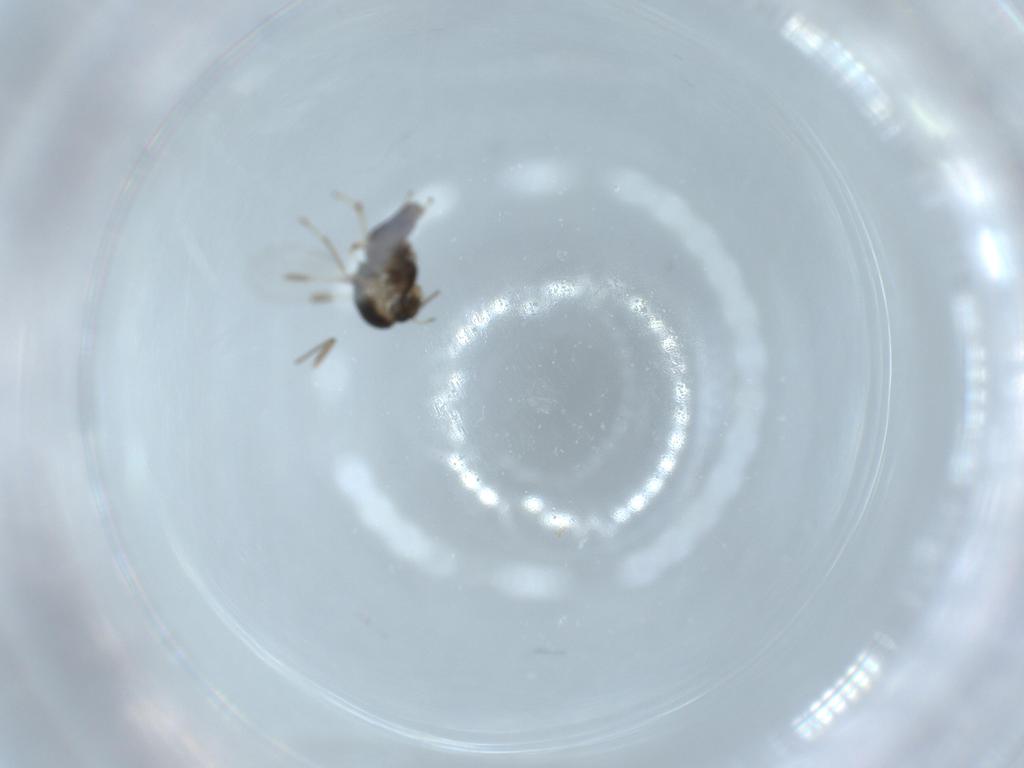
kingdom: Animalia
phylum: Arthropoda
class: Insecta
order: Diptera
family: Chironomidae
